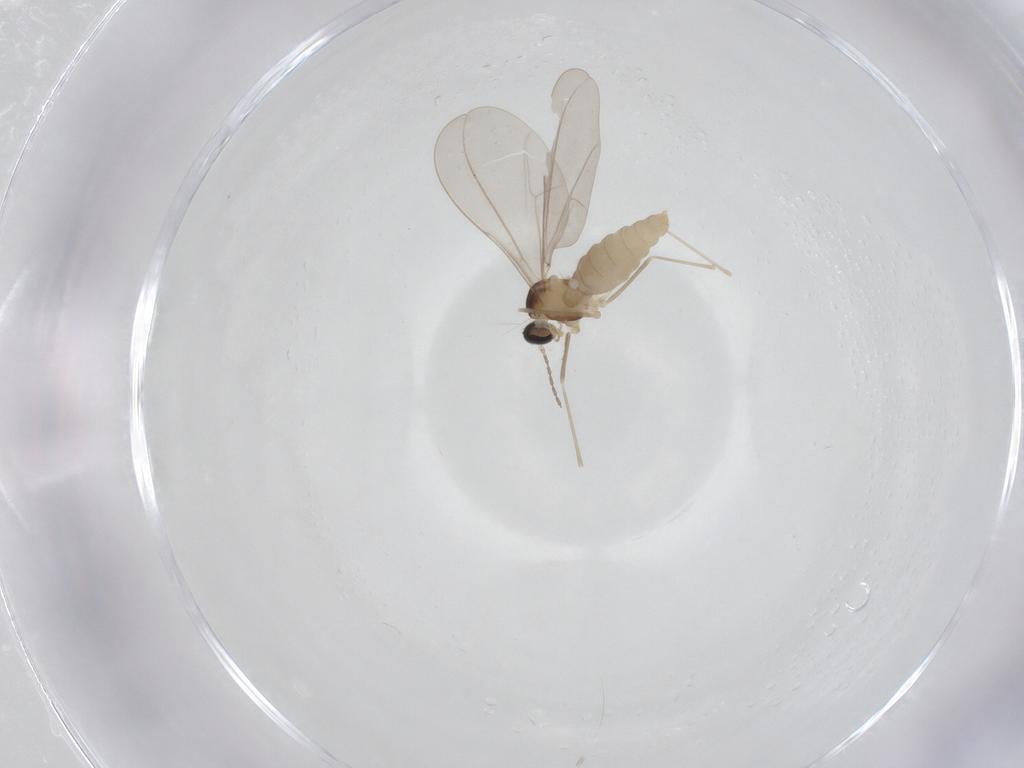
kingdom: Animalia
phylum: Arthropoda
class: Insecta
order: Diptera
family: Cecidomyiidae
